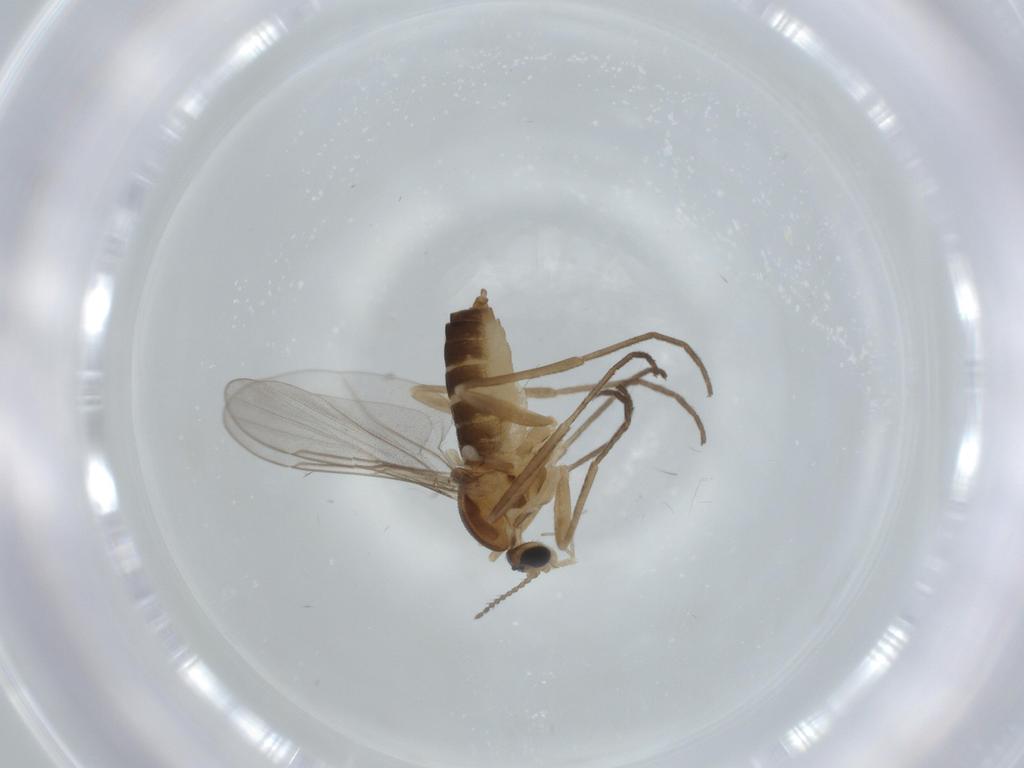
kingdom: Animalia
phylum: Arthropoda
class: Insecta
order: Diptera
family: Cecidomyiidae
